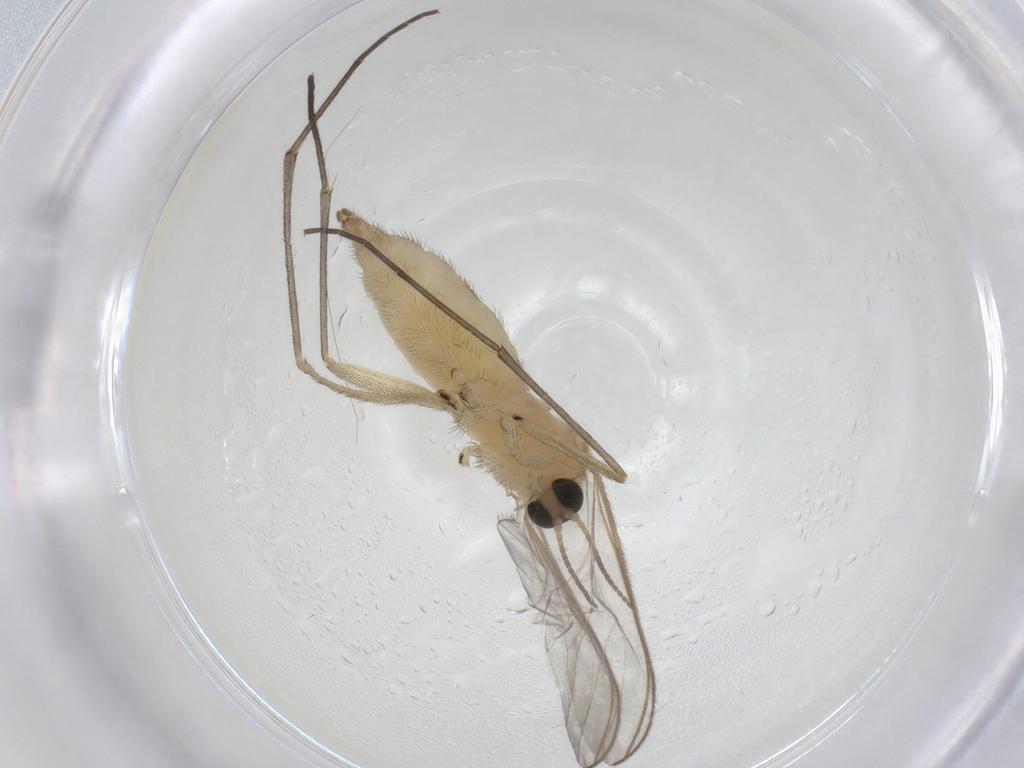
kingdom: Animalia
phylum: Arthropoda
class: Insecta
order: Diptera
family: Sciaridae
